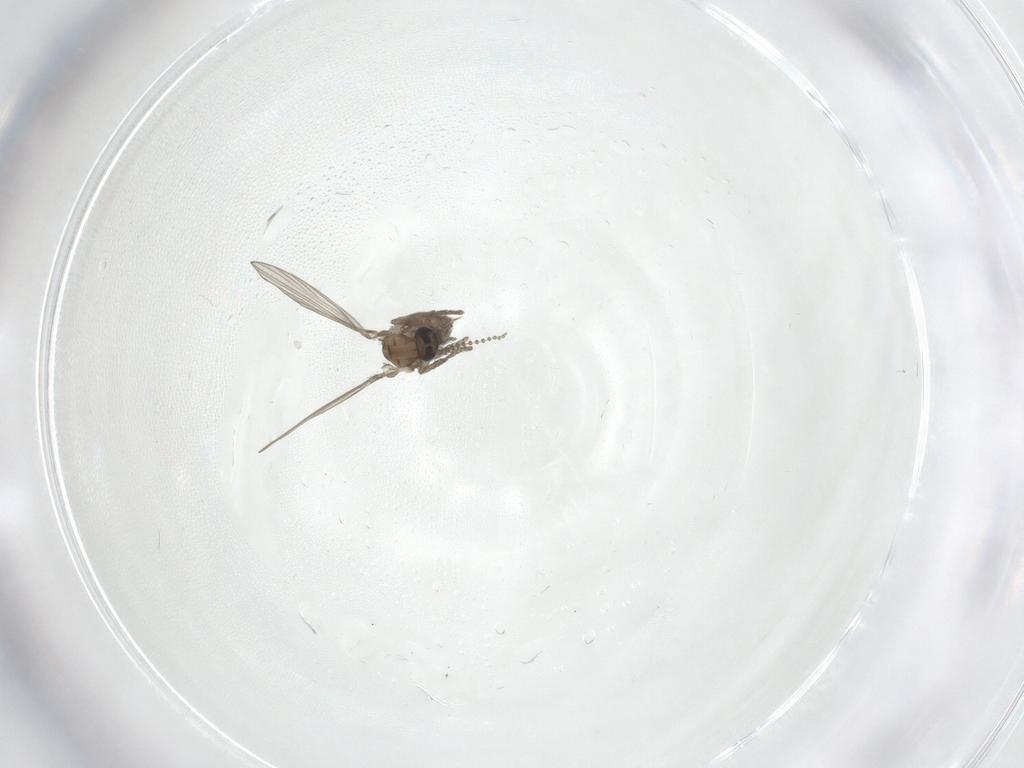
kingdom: Animalia
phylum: Arthropoda
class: Insecta
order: Diptera
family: Psychodidae
